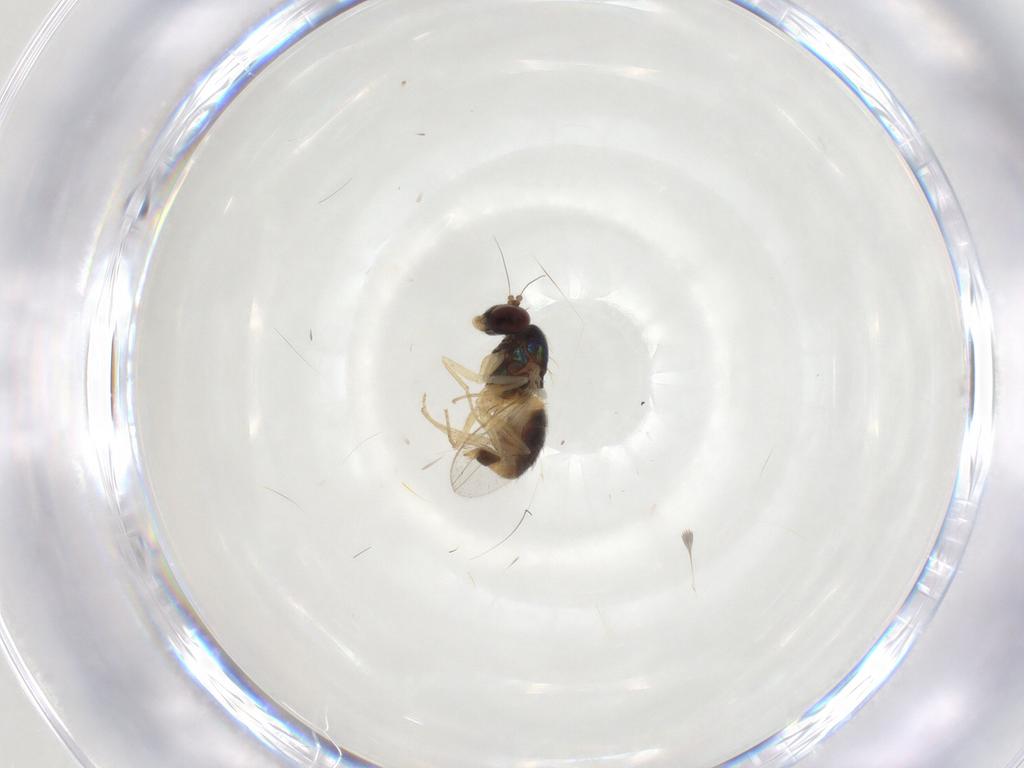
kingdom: Animalia
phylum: Arthropoda
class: Insecta
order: Diptera
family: Dolichopodidae
